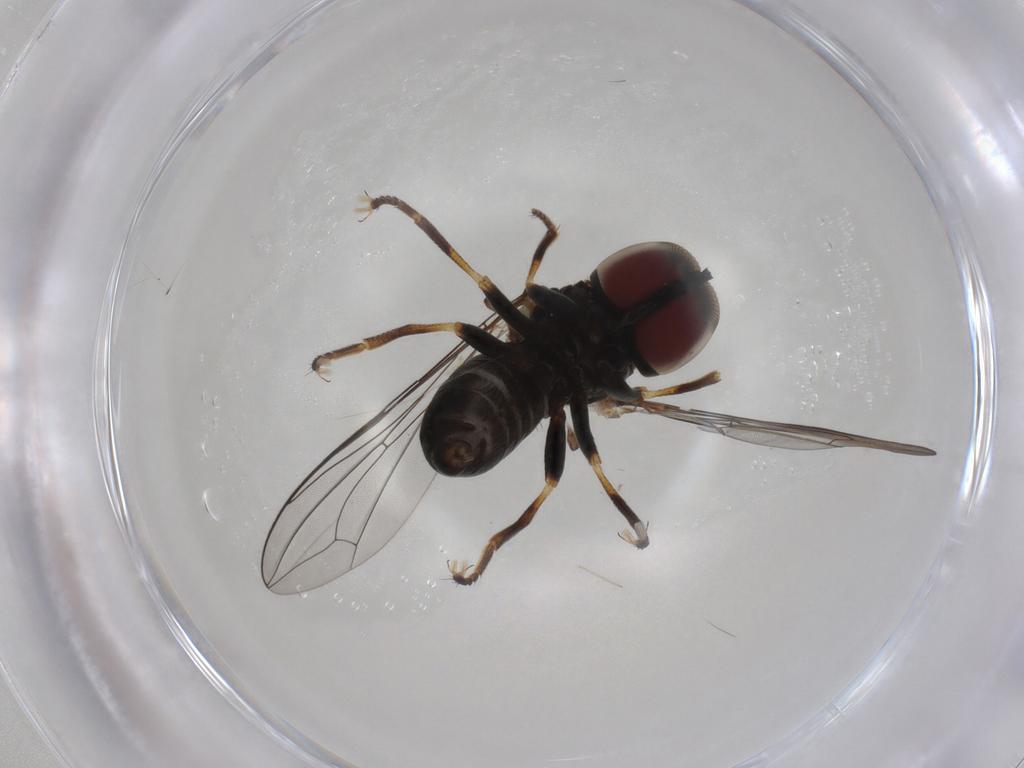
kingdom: Animalia
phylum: Arthropoda
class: Insecta
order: Diptera
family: Pipunculidae
